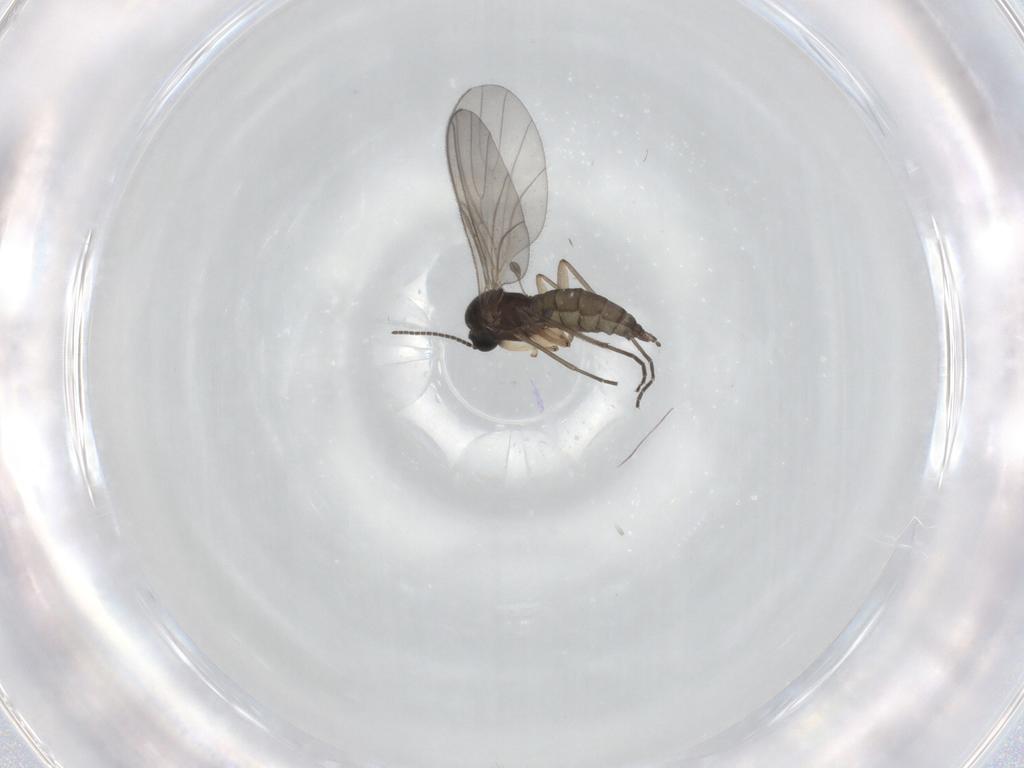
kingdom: Animalia
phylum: Arthropoda
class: Insecta
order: Diptera
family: Sciaridae
